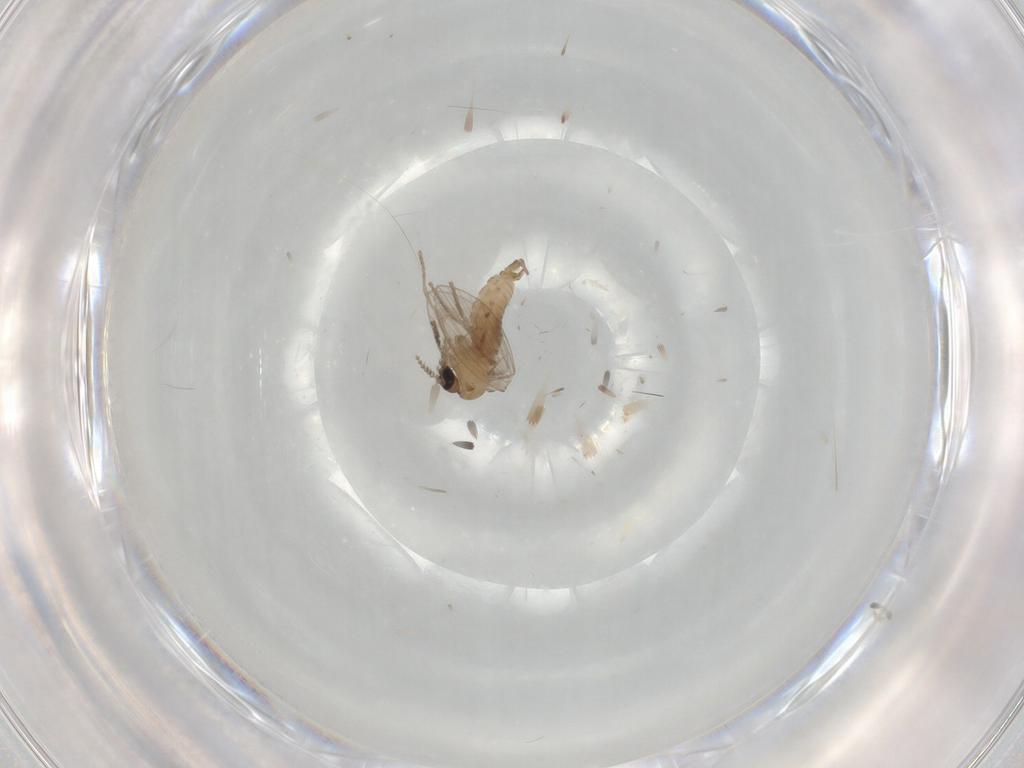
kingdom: Animalia
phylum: Arthropoda
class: Insecta
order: Diptera
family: Psychodidae
